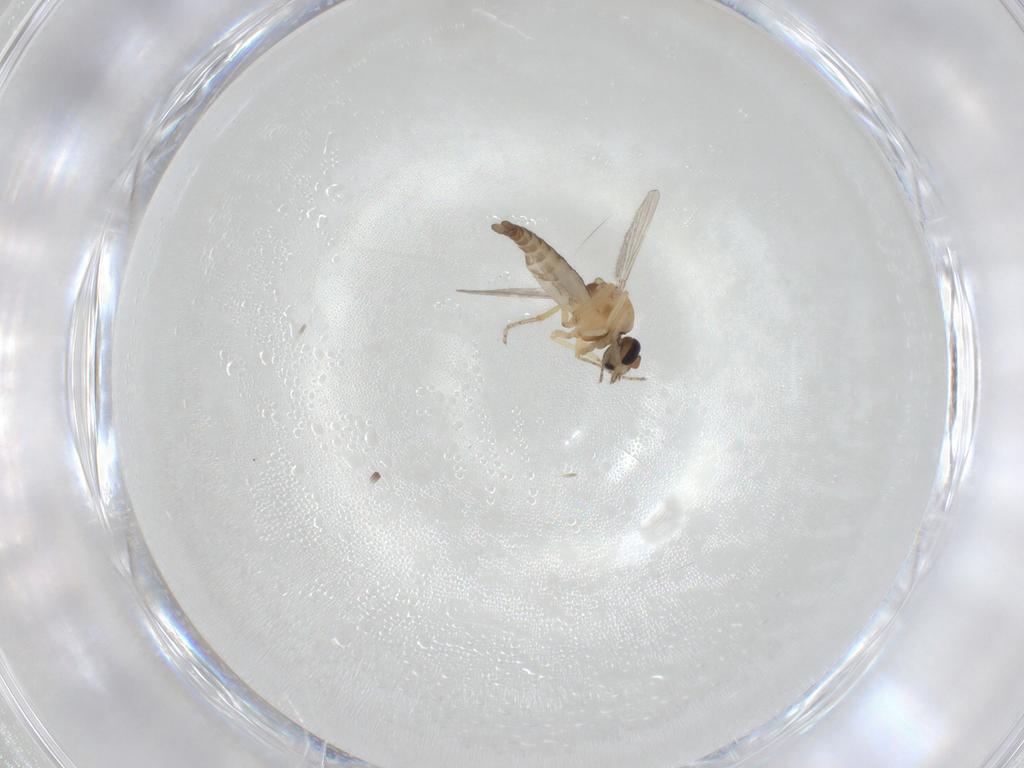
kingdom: Animalia
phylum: Arthropoda
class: Insecta
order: Diptera
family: Ceratopogonidae
